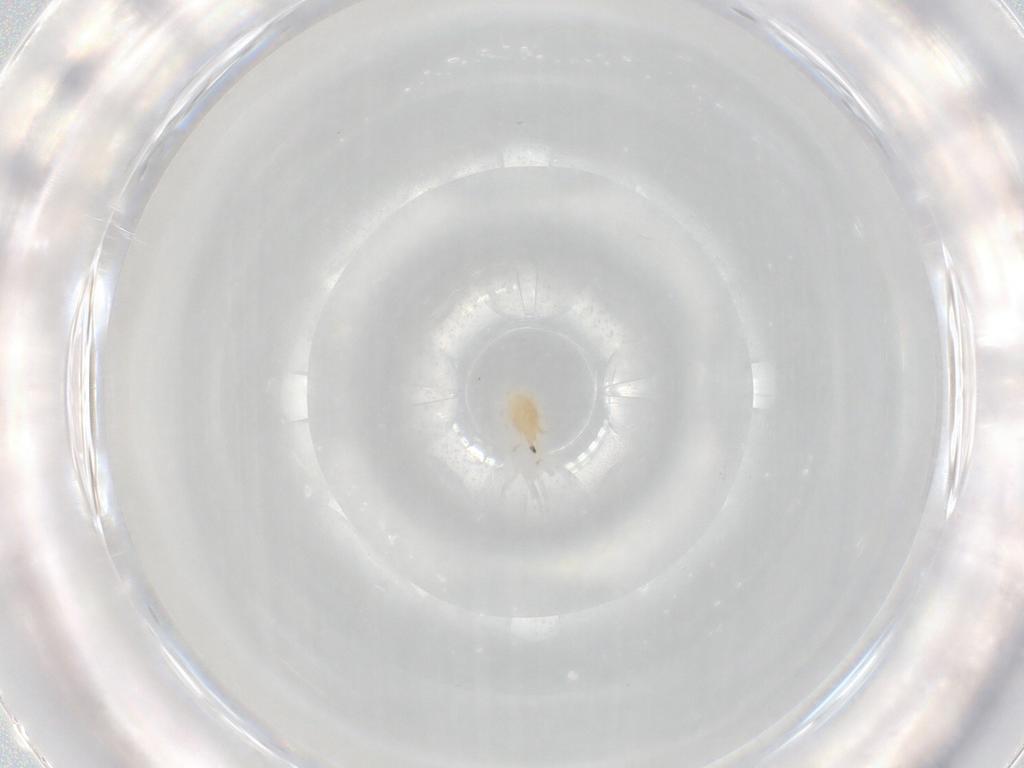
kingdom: Animalia
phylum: Arthropoda
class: Arachnida
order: Trombidiformes
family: Cunaxidae
